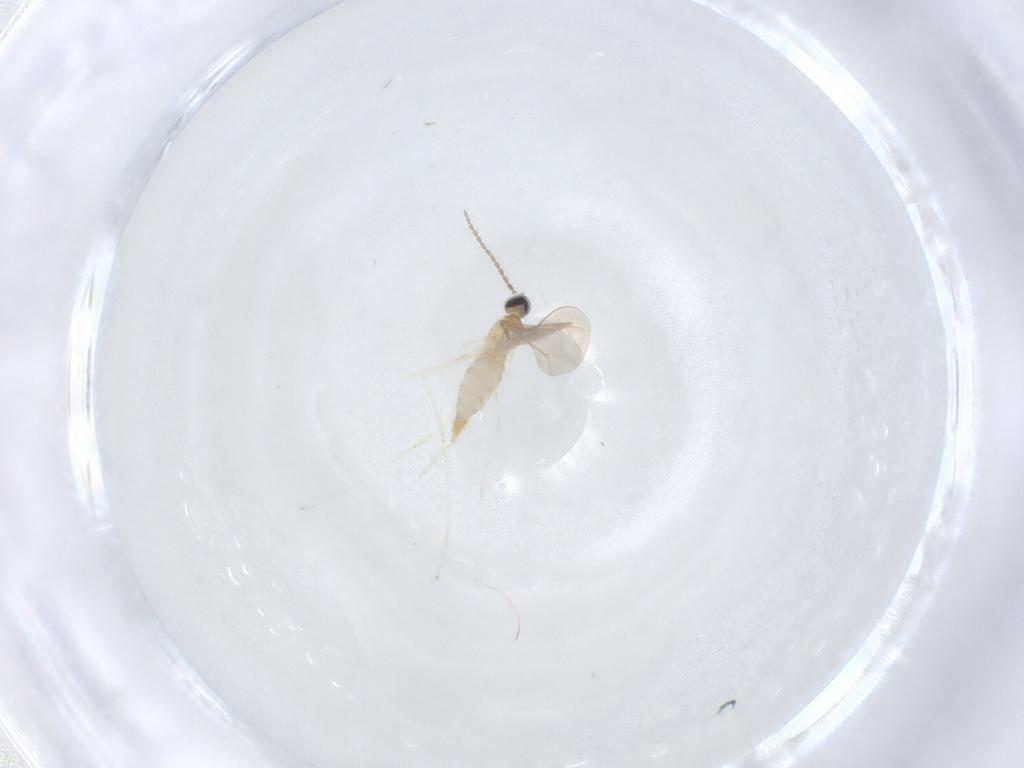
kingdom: Animalia
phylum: Arthropoda
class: Insecta
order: Diptera
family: Cecidomyiidae
